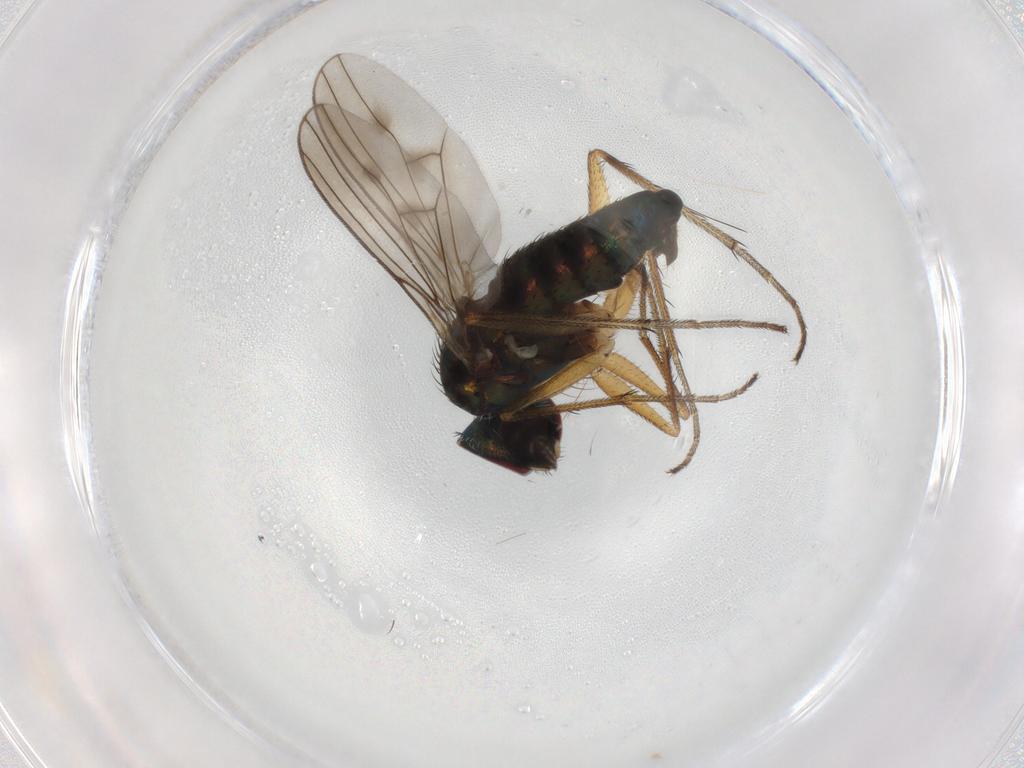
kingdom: Animalia
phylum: Arthropoda
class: Insecta
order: Diptera
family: Dolichopodidae
